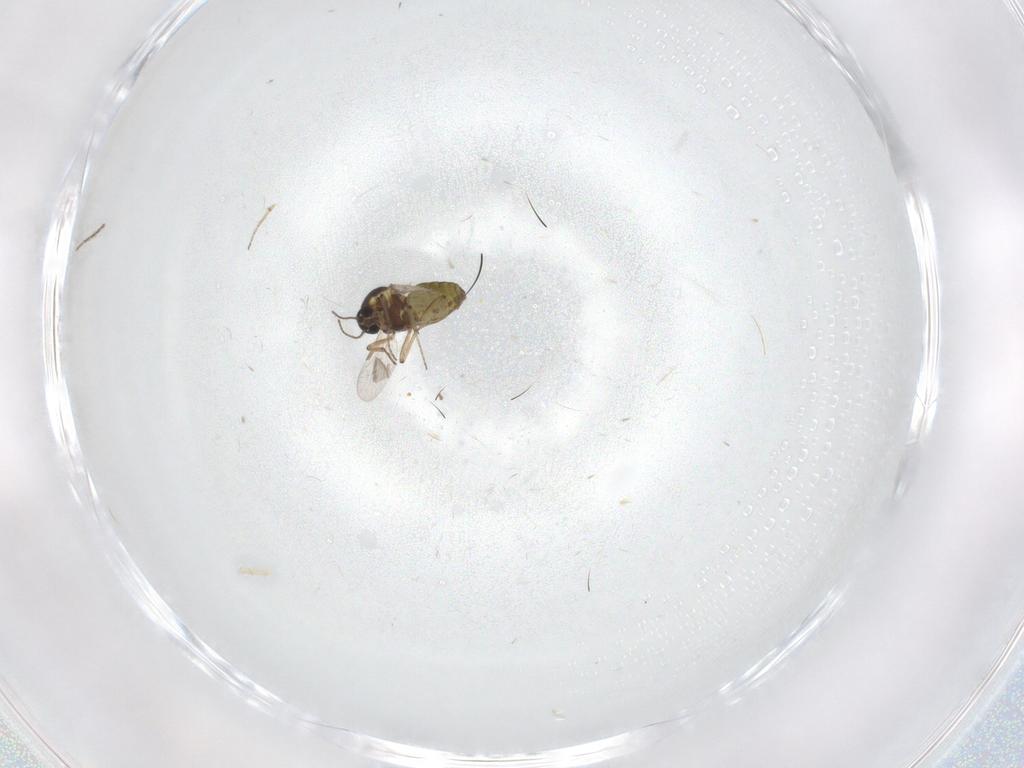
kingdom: Animalia
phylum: Arthropoda
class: Insecta
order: Diptera
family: Ceratopogonidae
